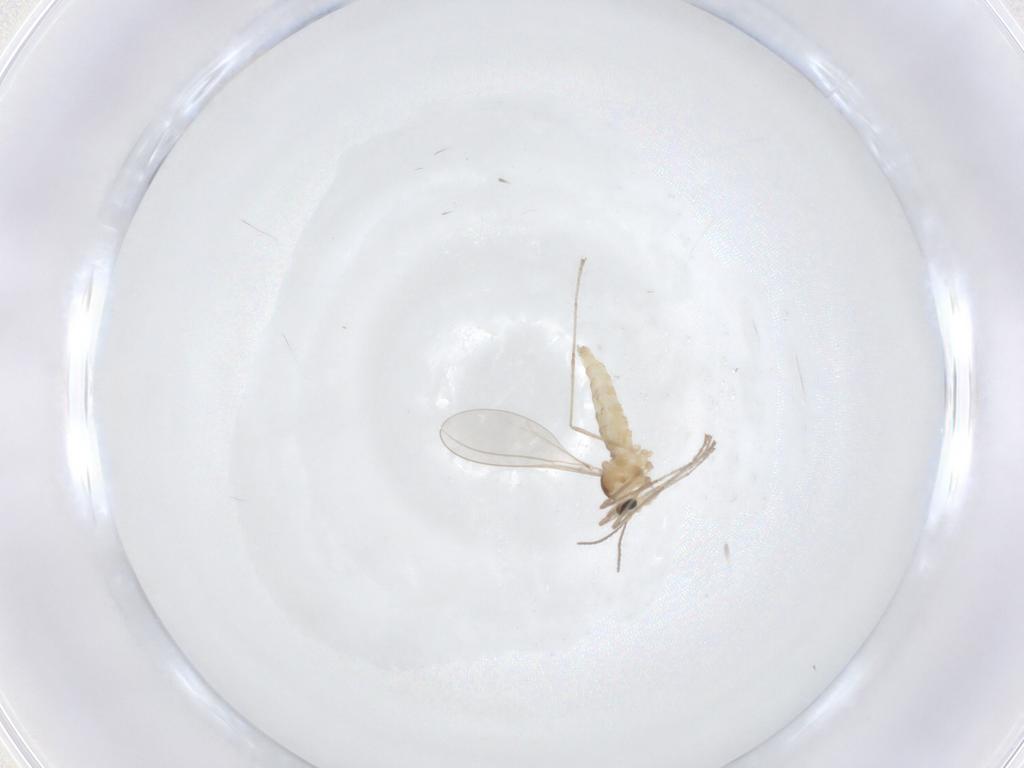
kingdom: Animalia
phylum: Arthropoda
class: Insecta
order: Diptera
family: Cecidomyiidae
